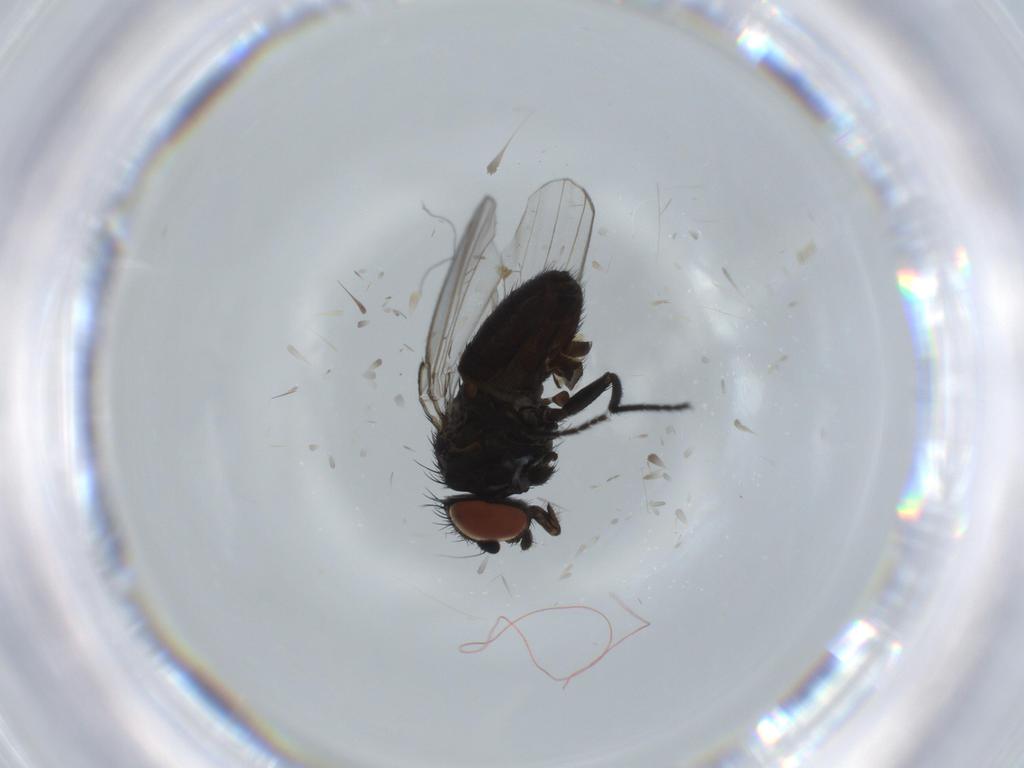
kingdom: Animalia
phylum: Arthropoda
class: Insecta
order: Diptera
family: Milichiidae
